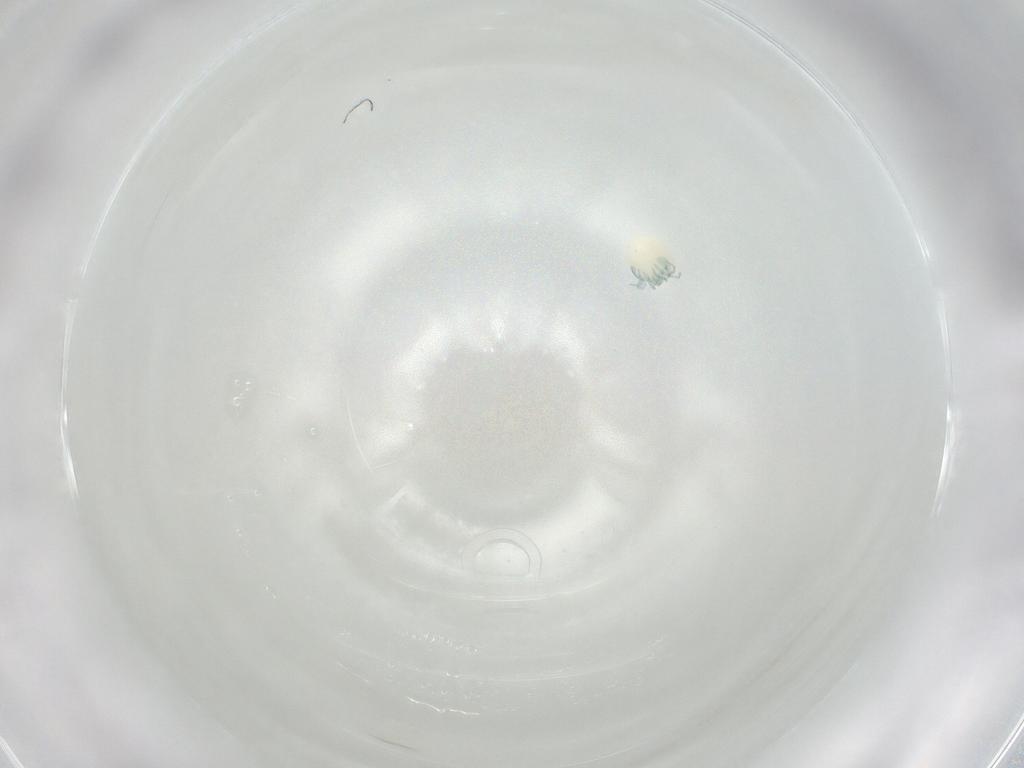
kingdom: Animalia
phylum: Arthropoda
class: Arachnida
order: Trombidiformes
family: Arrenuridae
